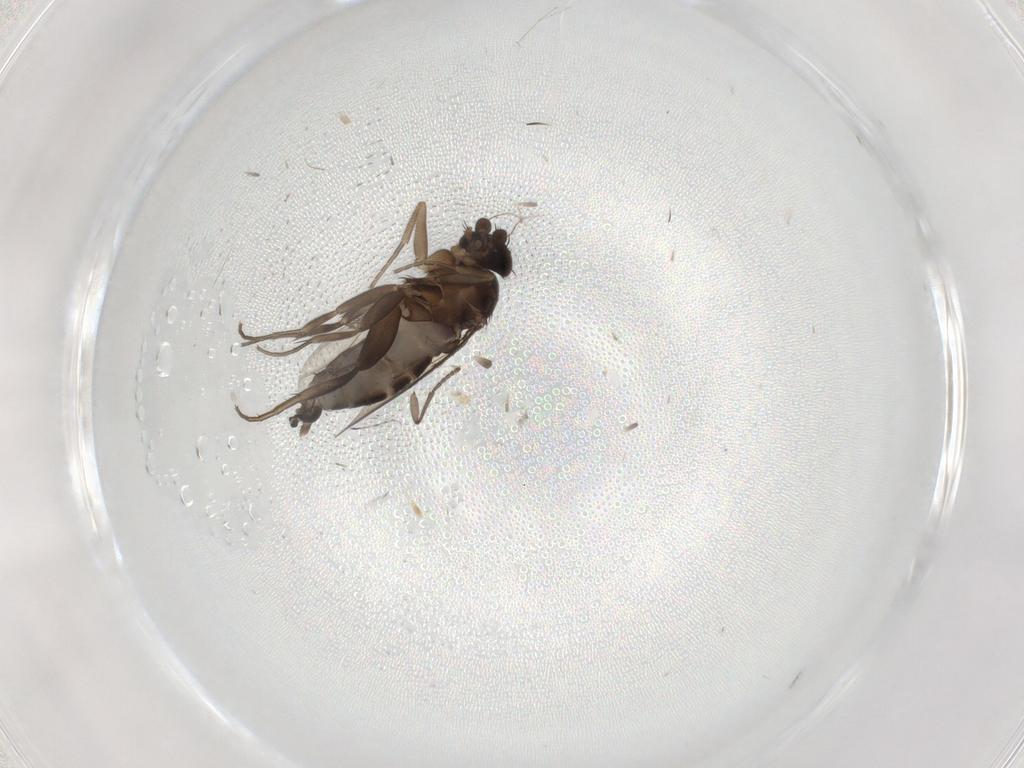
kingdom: Animalia
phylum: Arthropoda
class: Insecta
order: Diptera
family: Phoridae
